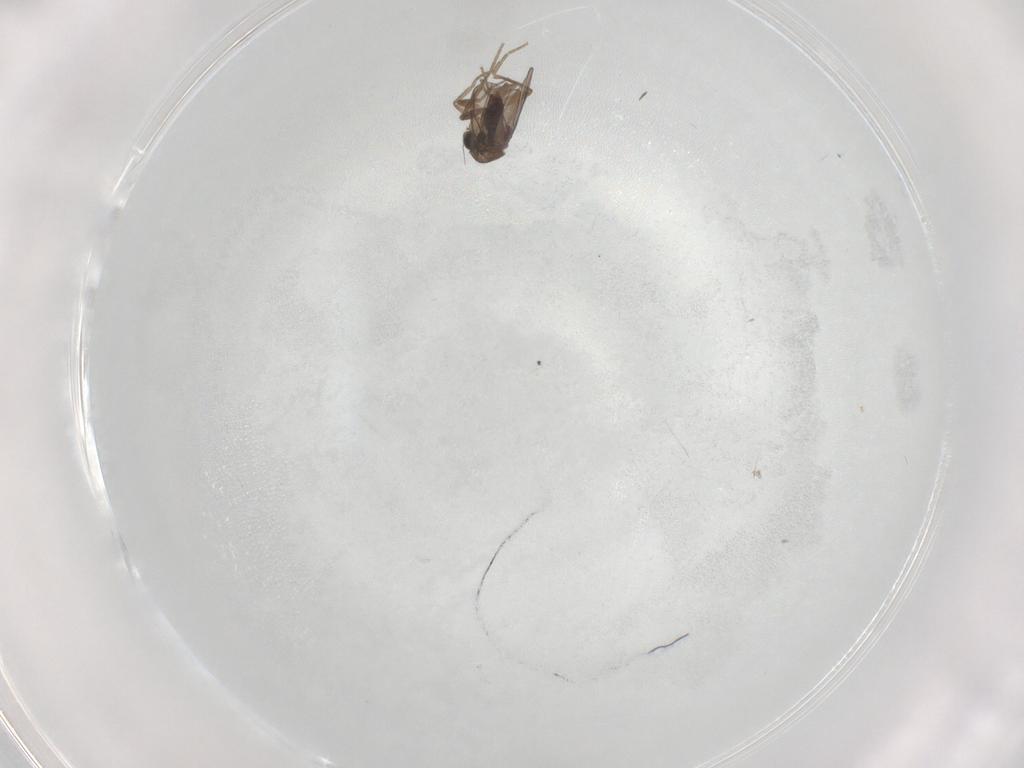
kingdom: Animalia
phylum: Arthropoda
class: Insecta
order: Diptera
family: Phoridae
